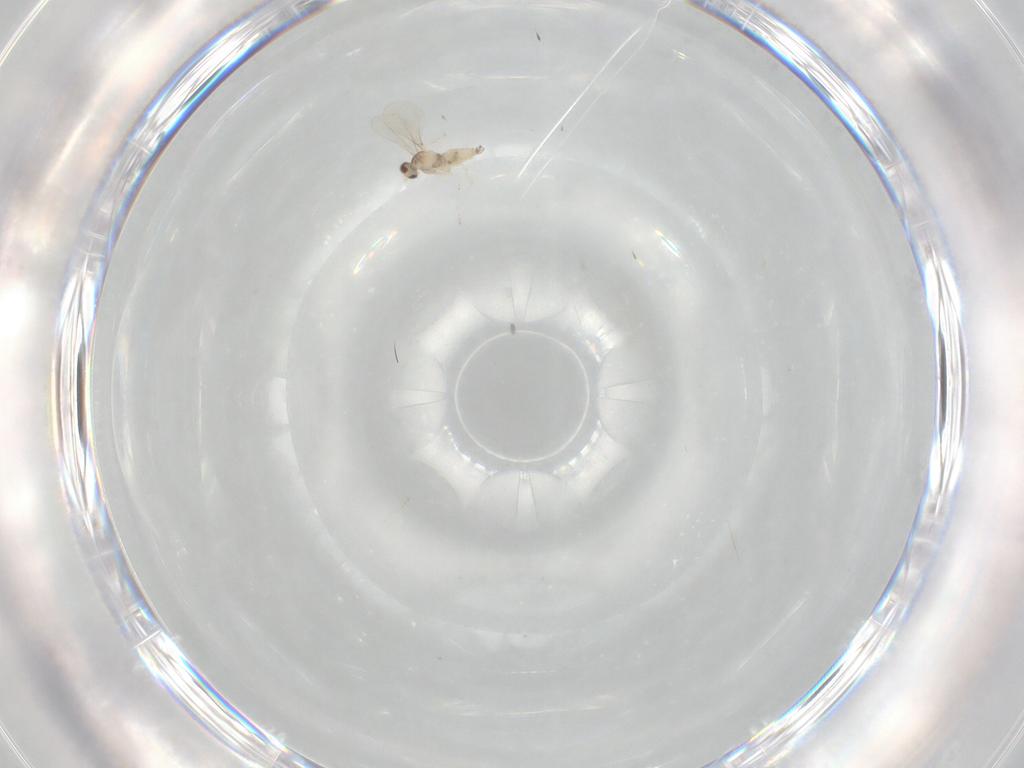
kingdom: Animalia
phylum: Arthropoda
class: Insecta
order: Diptera
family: Cecidomyiidae
